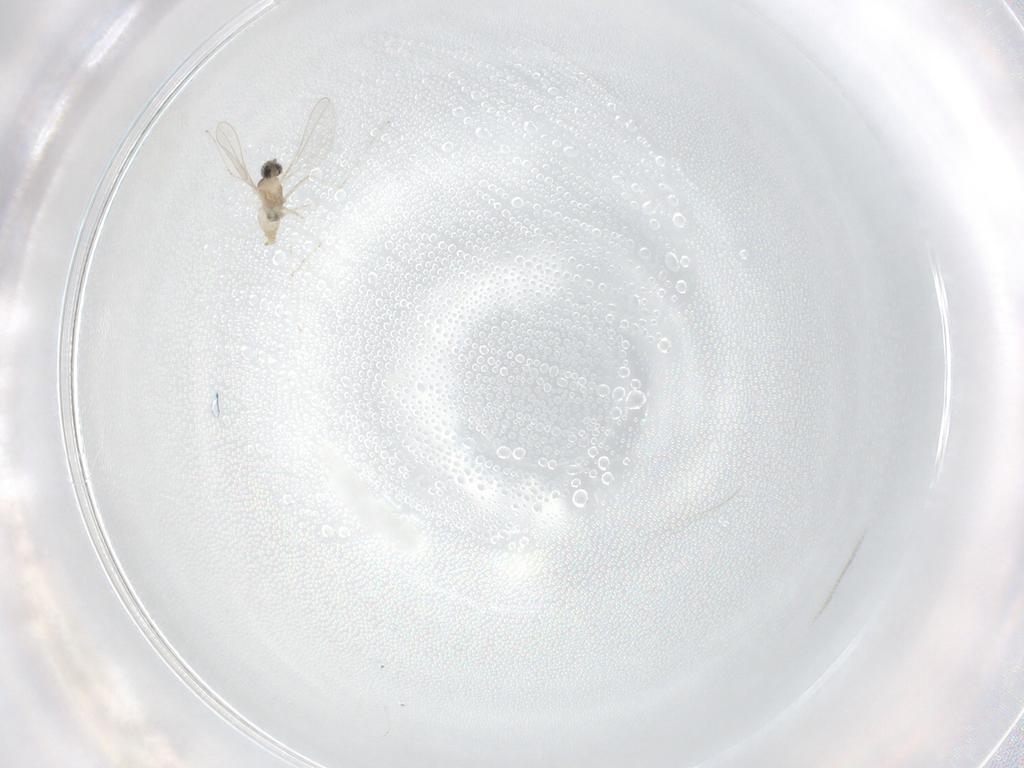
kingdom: Animalia
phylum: Arthropoda
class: Insecta
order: Diptera
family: Cecidomyiidae
